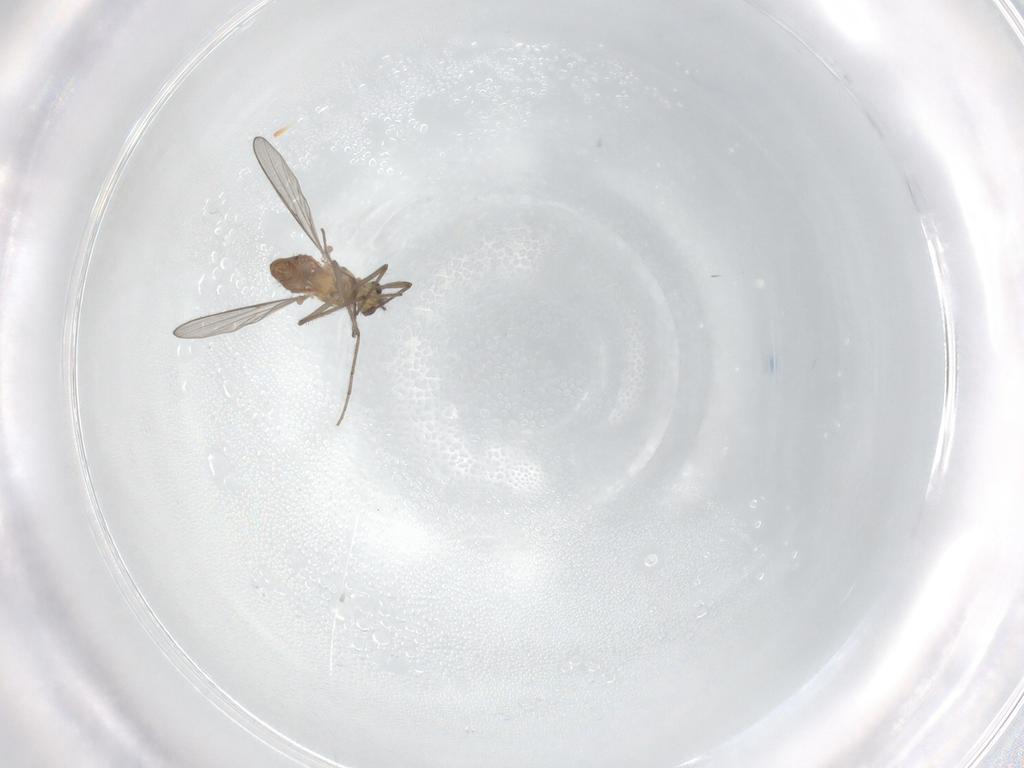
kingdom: Animalia
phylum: Arthropoda
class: Insecta
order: Diptera
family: Chironomidae
